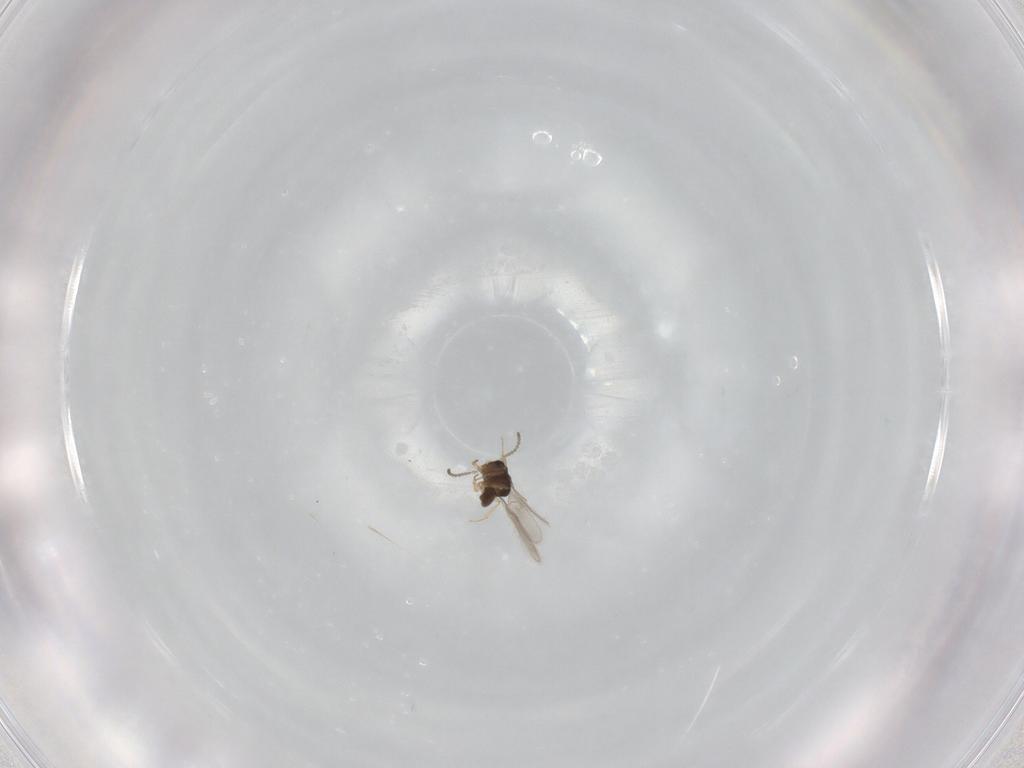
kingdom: Animalia
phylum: Arthropoda
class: Insecta
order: Hymenoptera
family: Scelionidae
